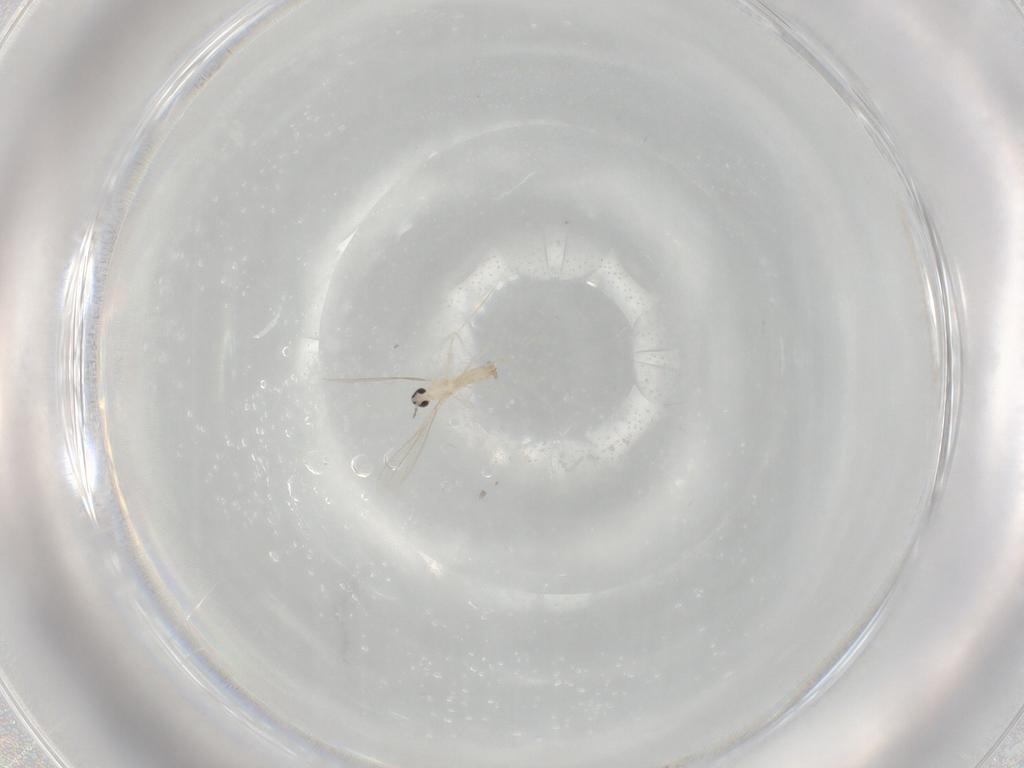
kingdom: Animalia
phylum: Arthropoda
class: Insecta
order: Diptera
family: Cecidomyiidae
